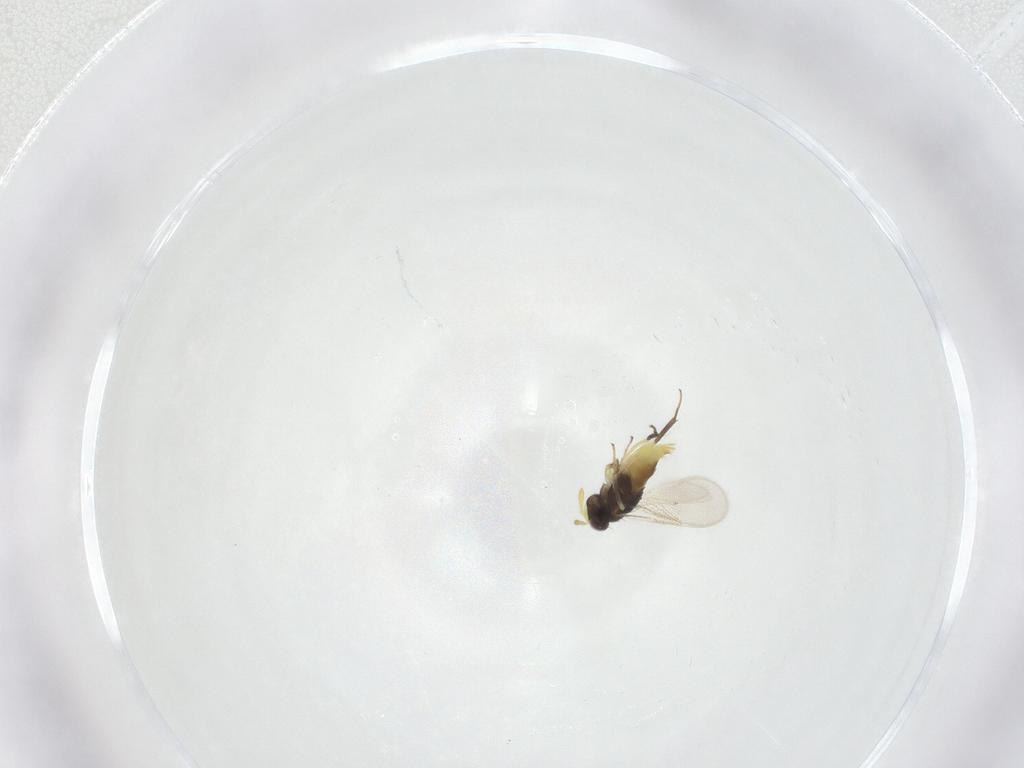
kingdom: Animalia
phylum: Arthropoda
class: Insecta
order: Hymenoptera
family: Aphelinidae
